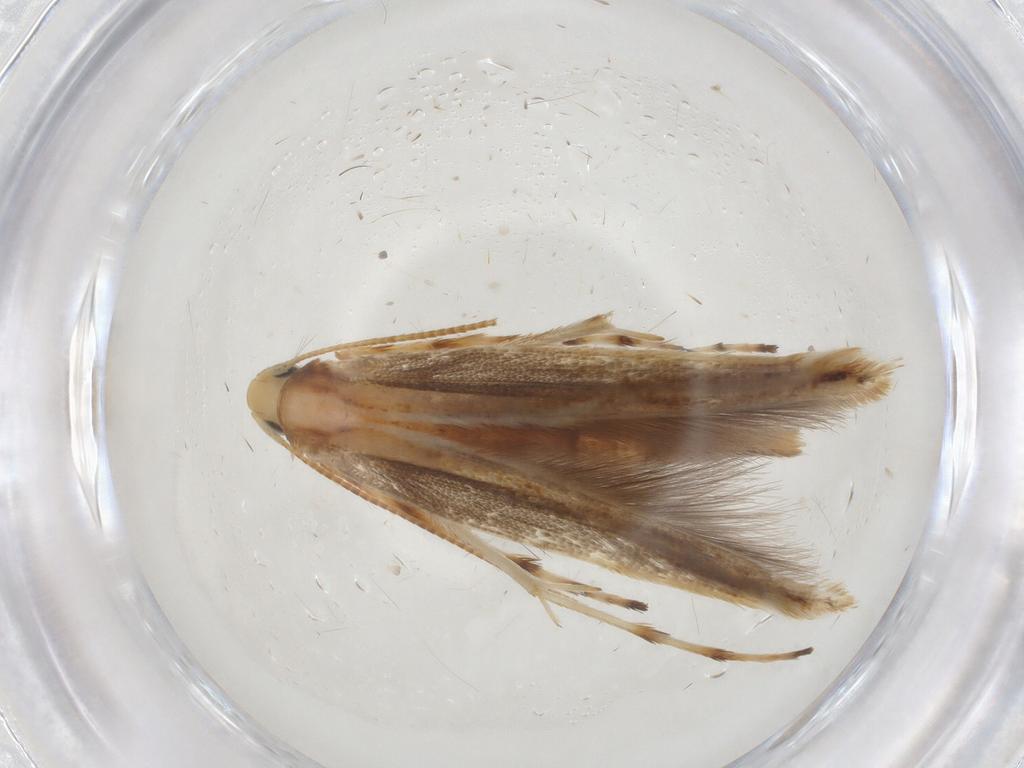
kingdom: Animalia
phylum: Arthropoda
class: Insecta
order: Lepidoptera
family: Gracillariidae
